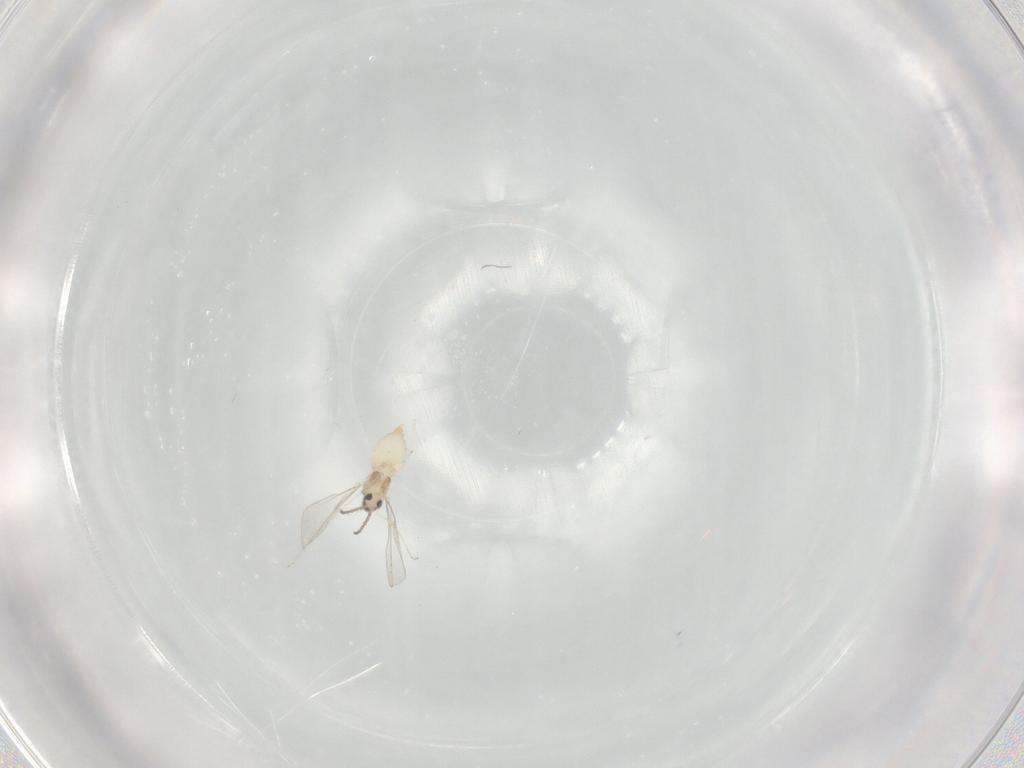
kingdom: Animalia
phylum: Arthropoda
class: Insecta
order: Diptera
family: Cecidomyiidae
